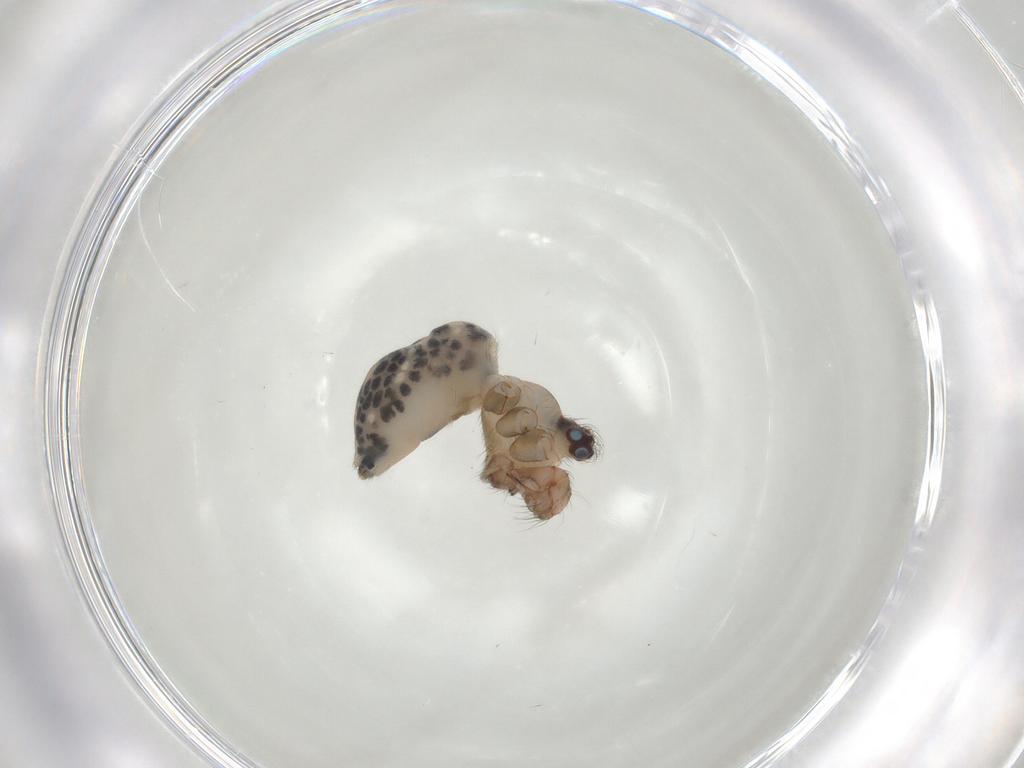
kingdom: Animalia
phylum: Arthropoda
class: Arachnida
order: Araneae
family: Pholcidae
